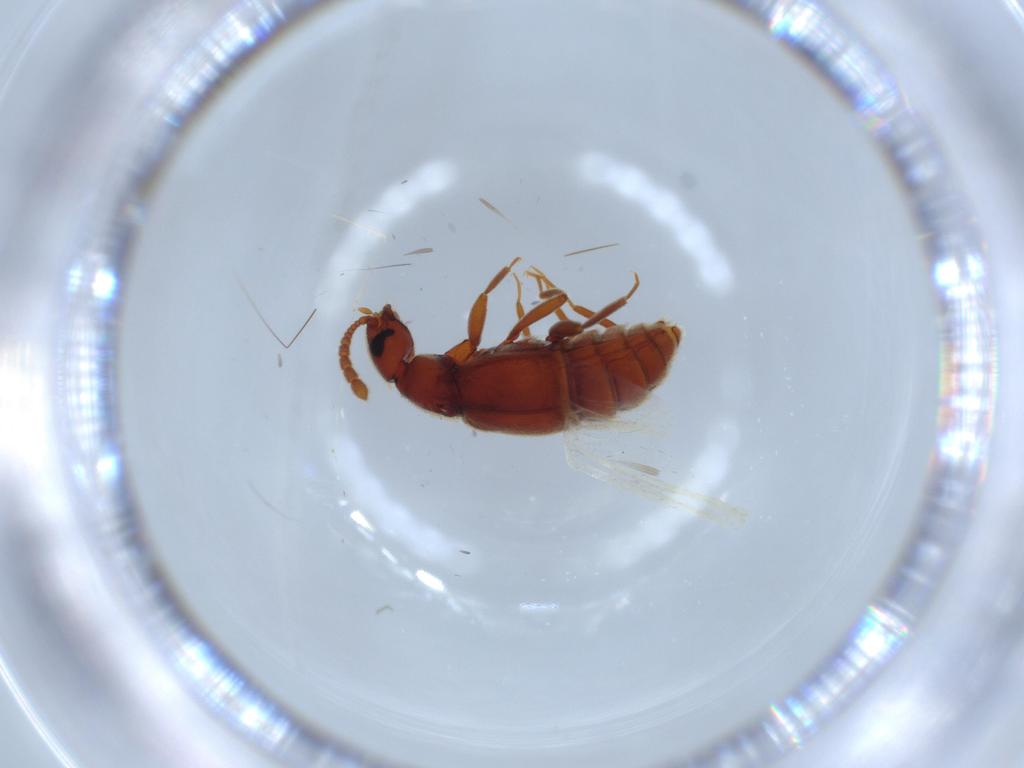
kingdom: Animalia
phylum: Arthropoda
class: Insecta
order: Coleoptera
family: Staphylinidae
